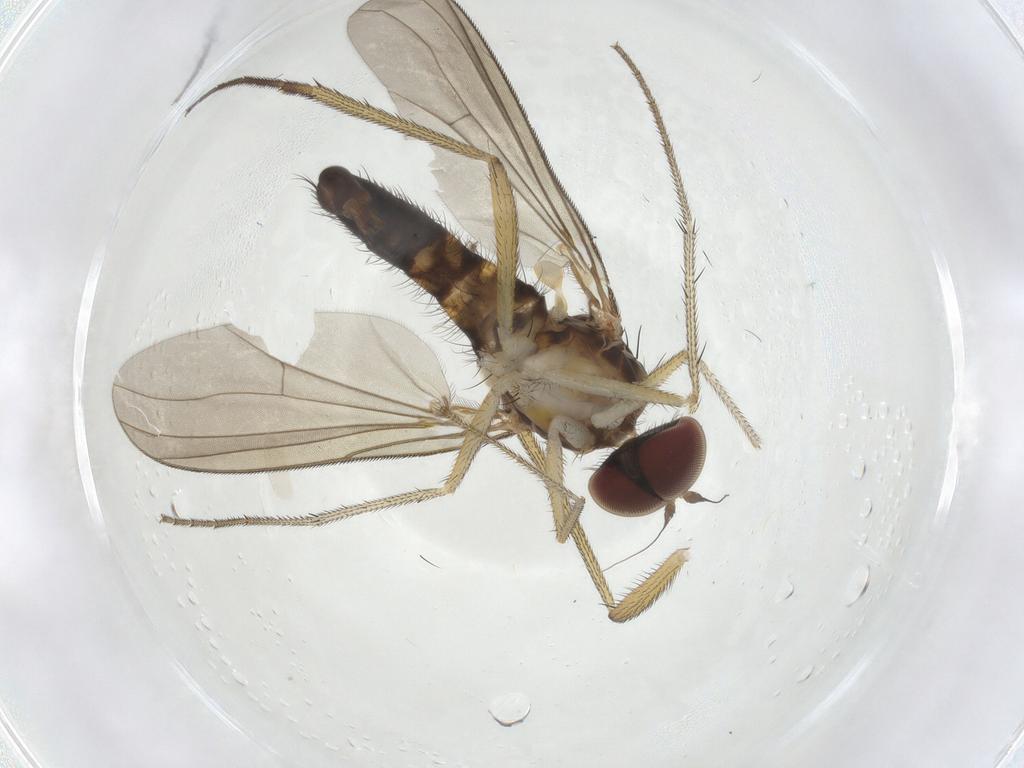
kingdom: Animalia
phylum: Arthropoda
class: Insecta
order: Diptera
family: Dolichopodidae
